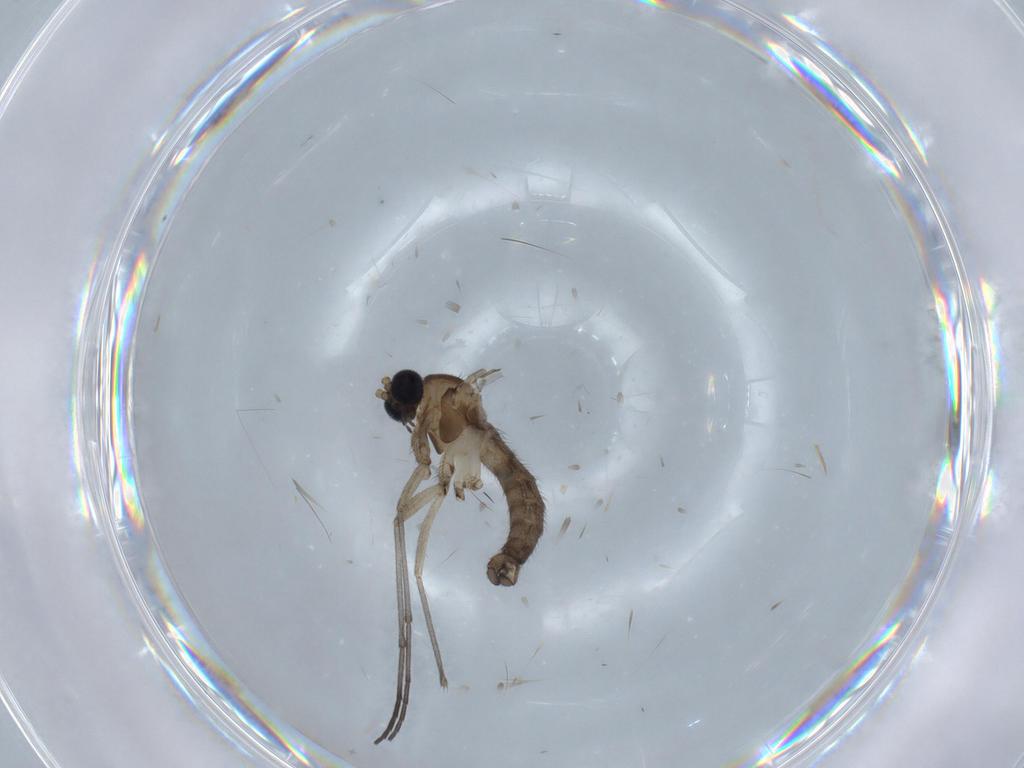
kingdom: Animalia
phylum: Arthropoda
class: Insecta
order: Diptera
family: Sciaridae
